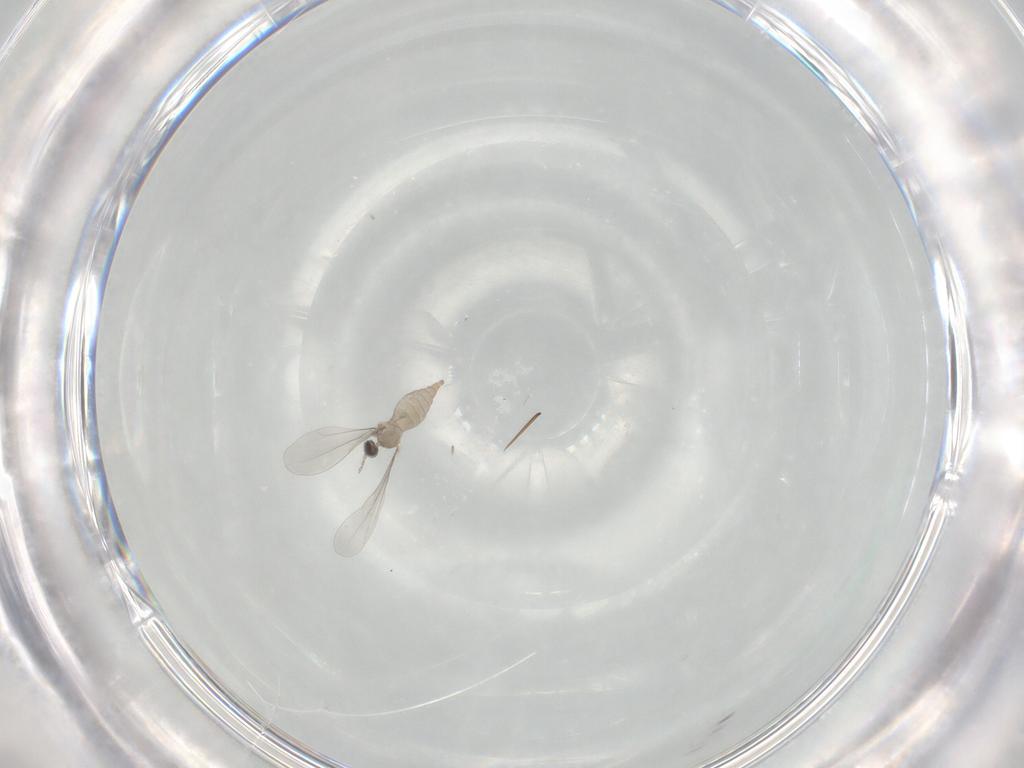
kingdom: Animalia
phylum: Arthropoda
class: Insecta
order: Diptera
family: Cecidomyiidae
